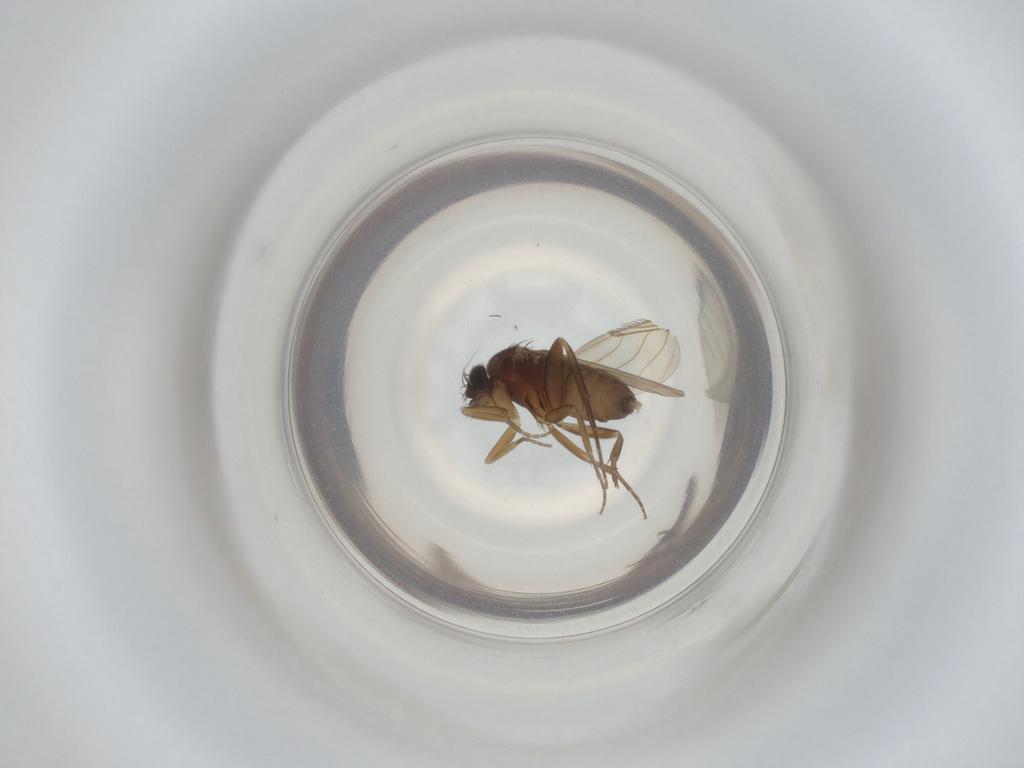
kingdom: Animalia
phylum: Arthropoda
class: Insecta
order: Diptera
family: Phoridae
